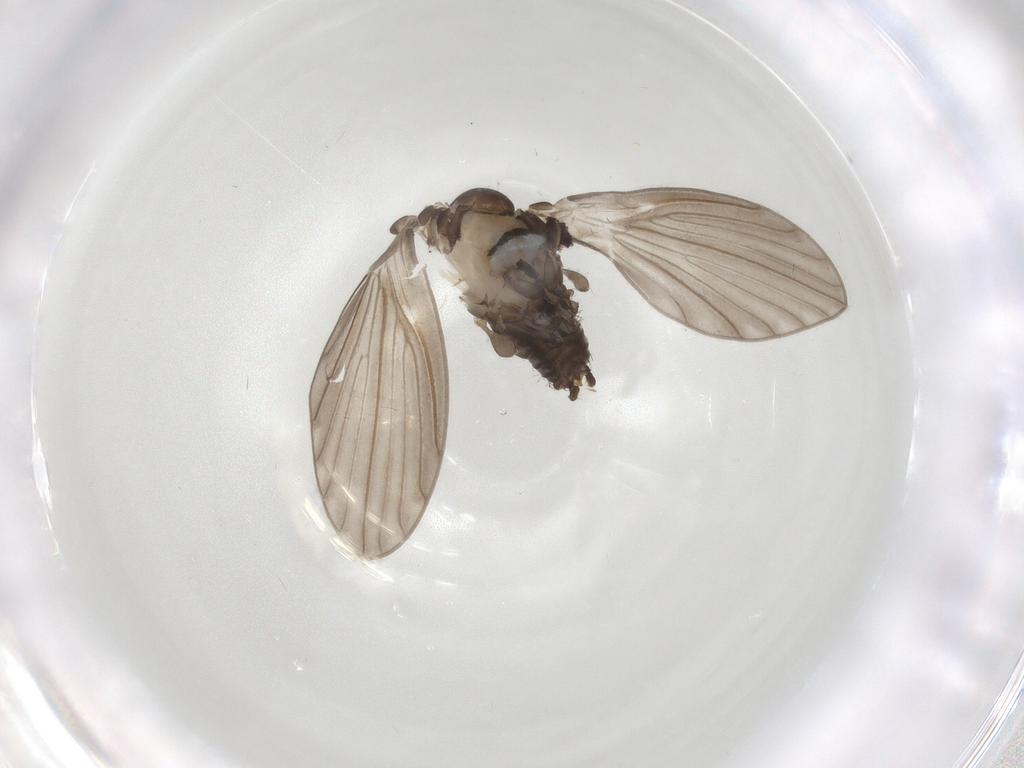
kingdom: Animalia
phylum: Arthropoda
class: Insecta
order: Diptera
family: Psychodidae
